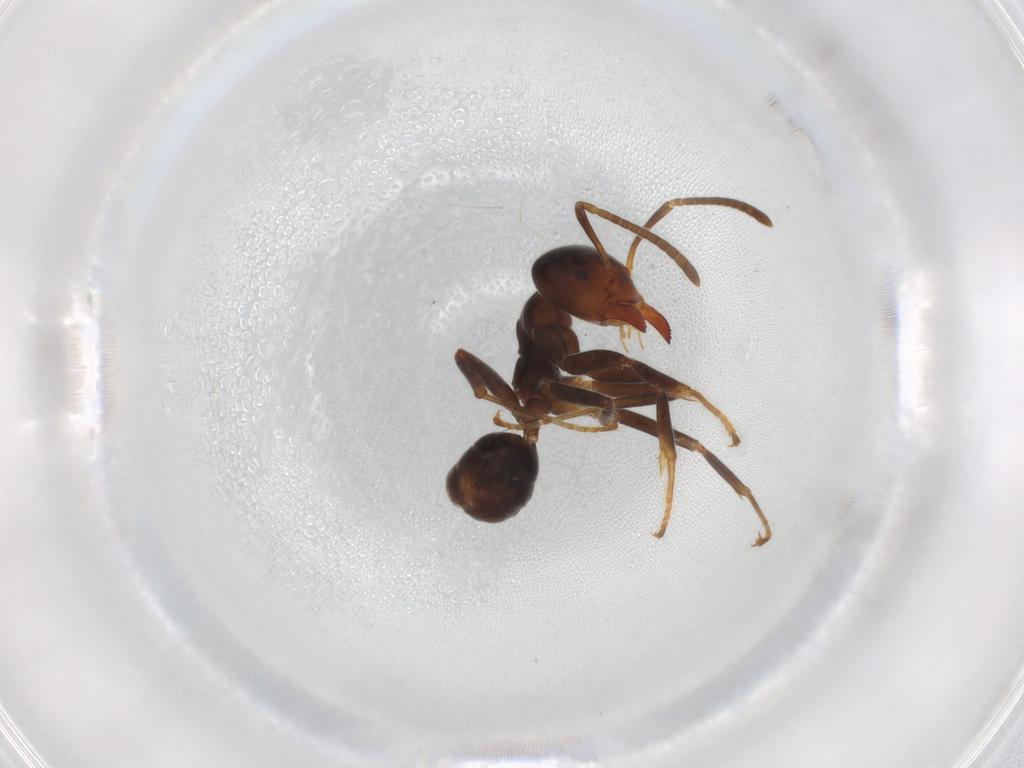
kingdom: Animalia
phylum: Arthropoda
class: Insecta
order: Hymenoptera
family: Formicidae
